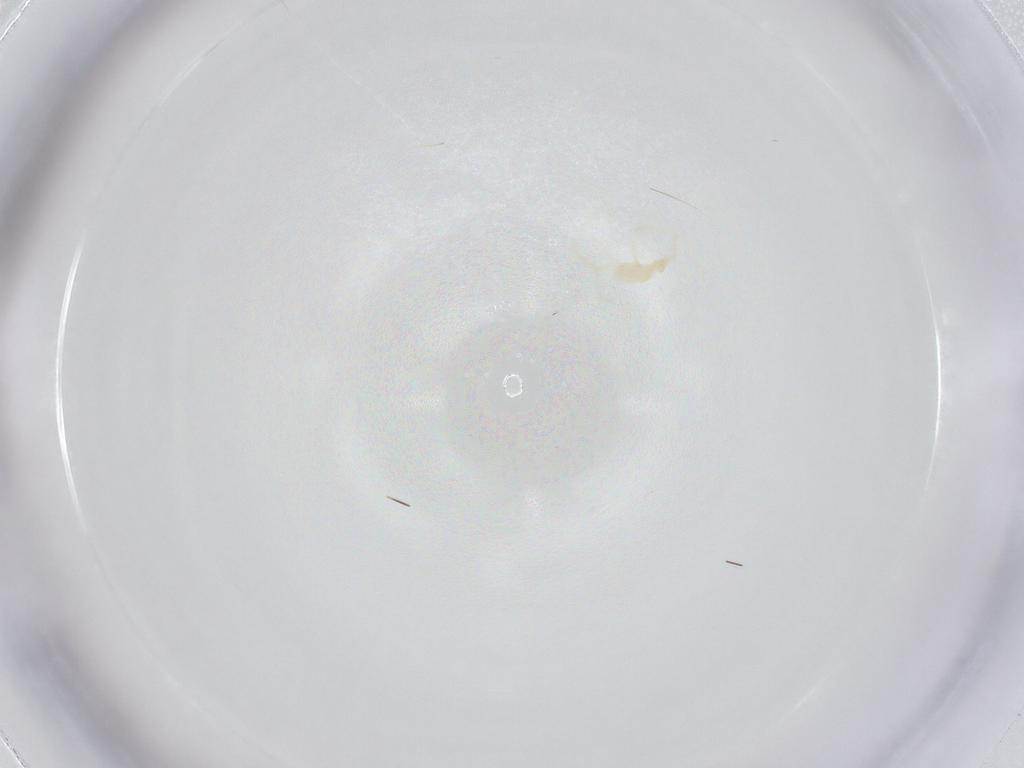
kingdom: Animalia
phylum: Arthropoda
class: Arachnida
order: Trombidiformes
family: Erythraeidae
